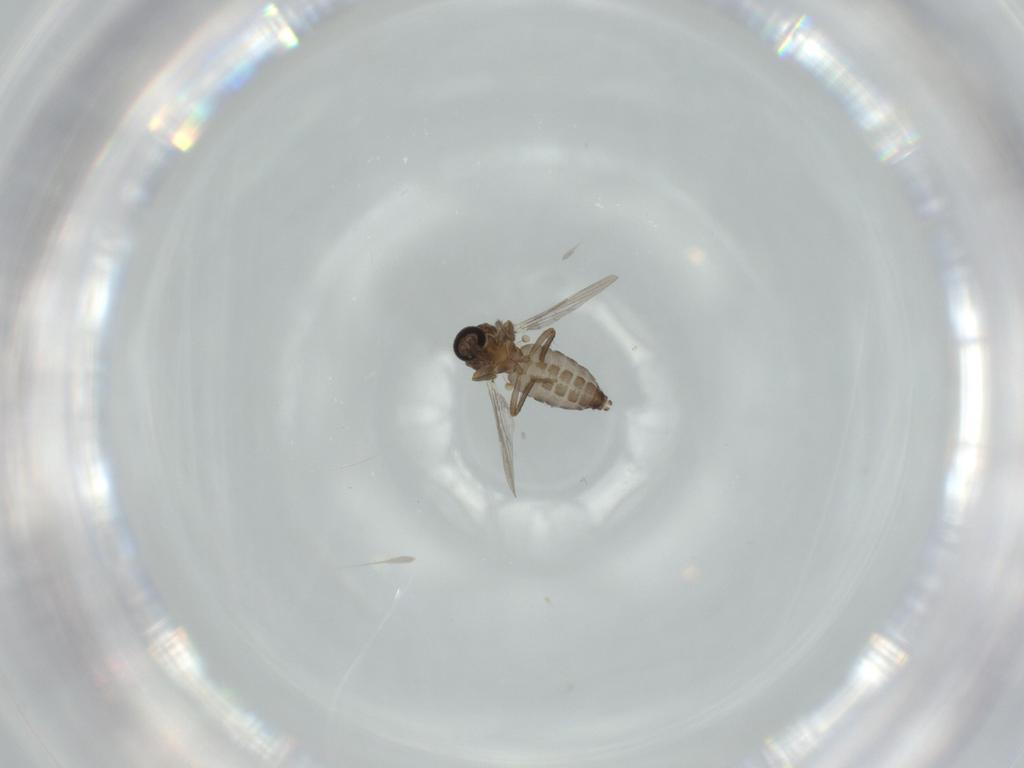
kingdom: Animalia
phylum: Arthropoda
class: Insecta
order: Diptera
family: Ceratopogonidae
